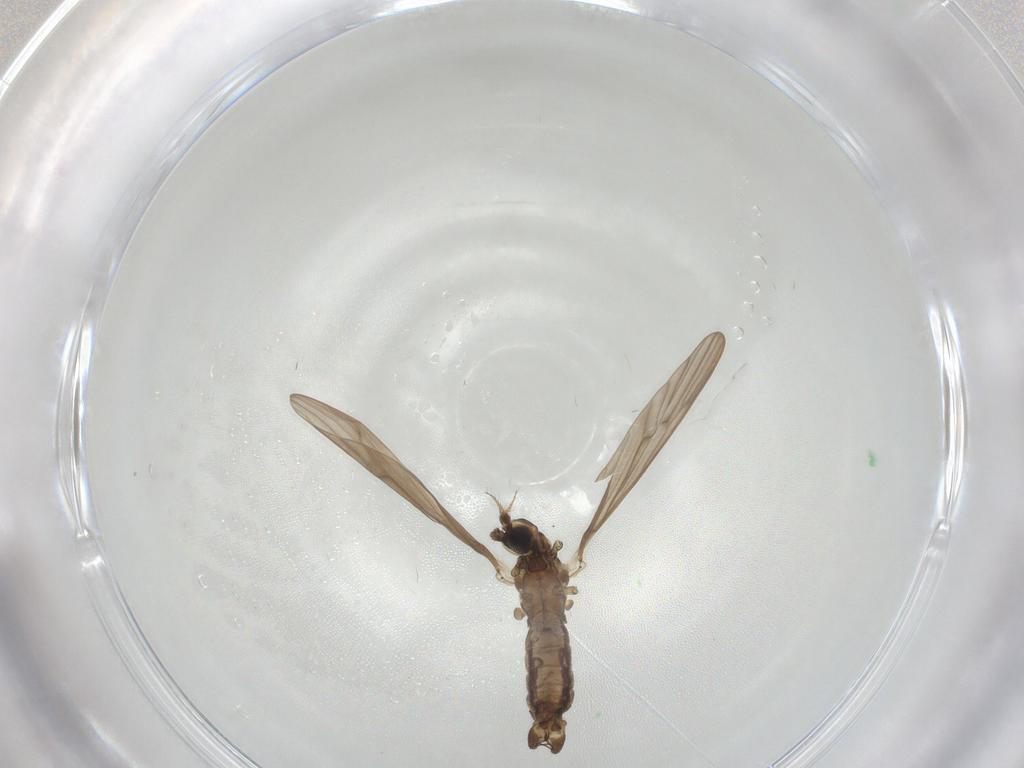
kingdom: Animalia
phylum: Arthropoda
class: Insecta
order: Diptera
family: Limoniidae
